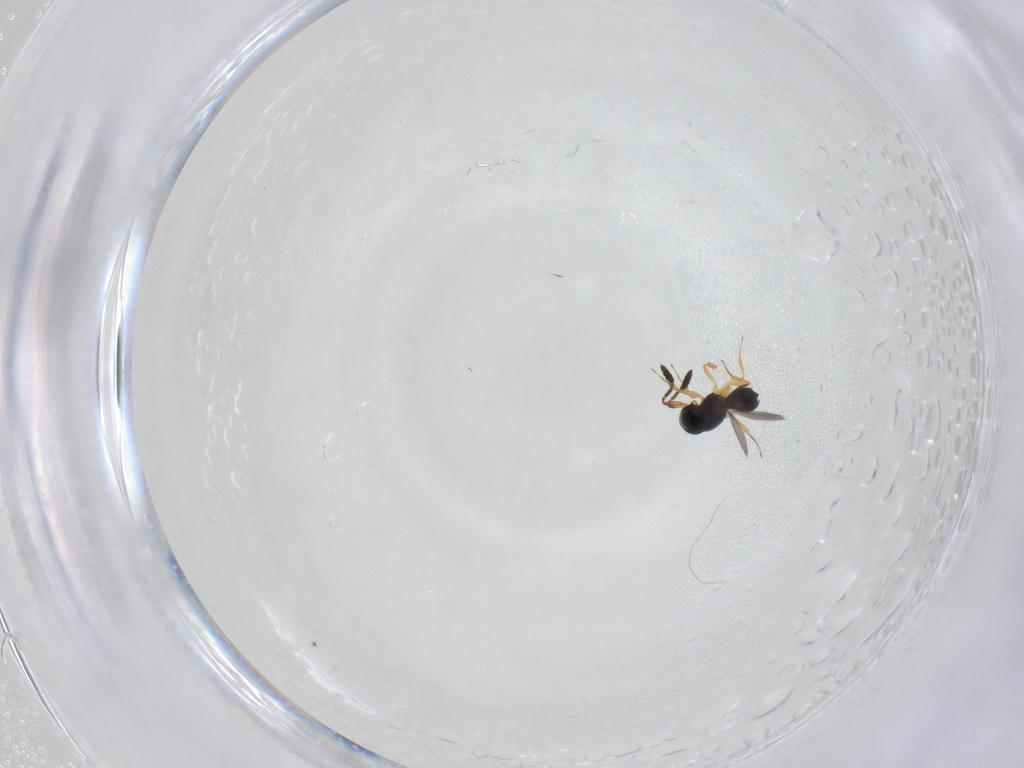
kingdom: Animalia
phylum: Arthropoda
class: Insecta
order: Hymenoptera
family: Scelionidae
